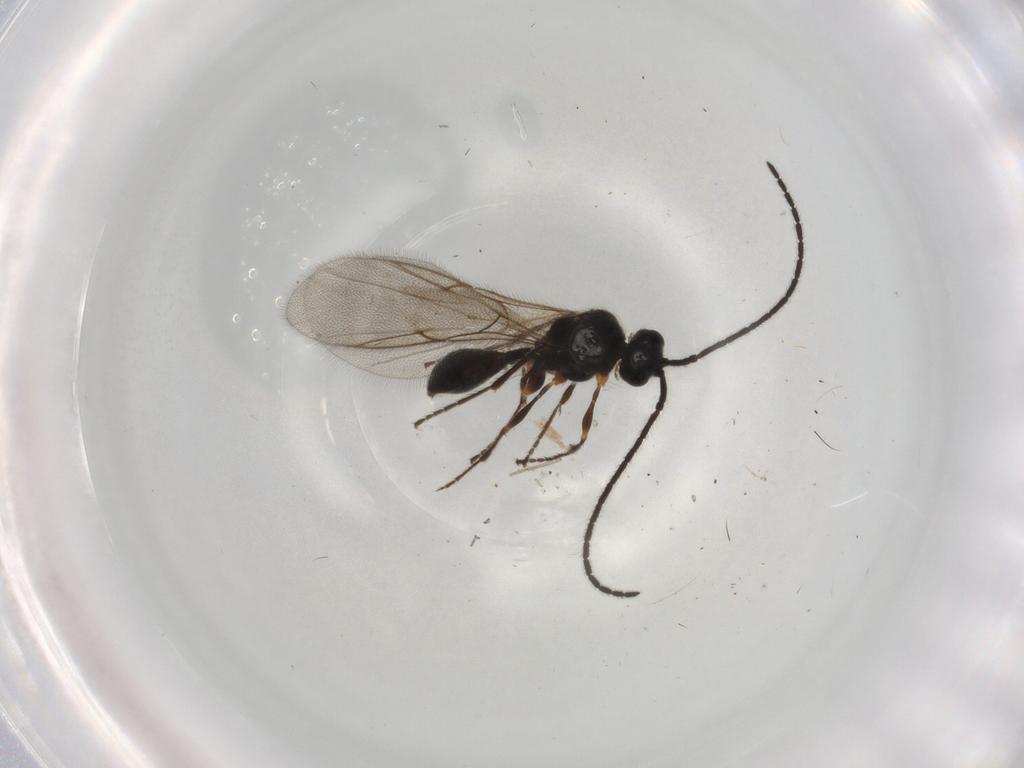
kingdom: Animalia
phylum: Arthropoda
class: Insecta
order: Hymenoptera
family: Diapriidae
